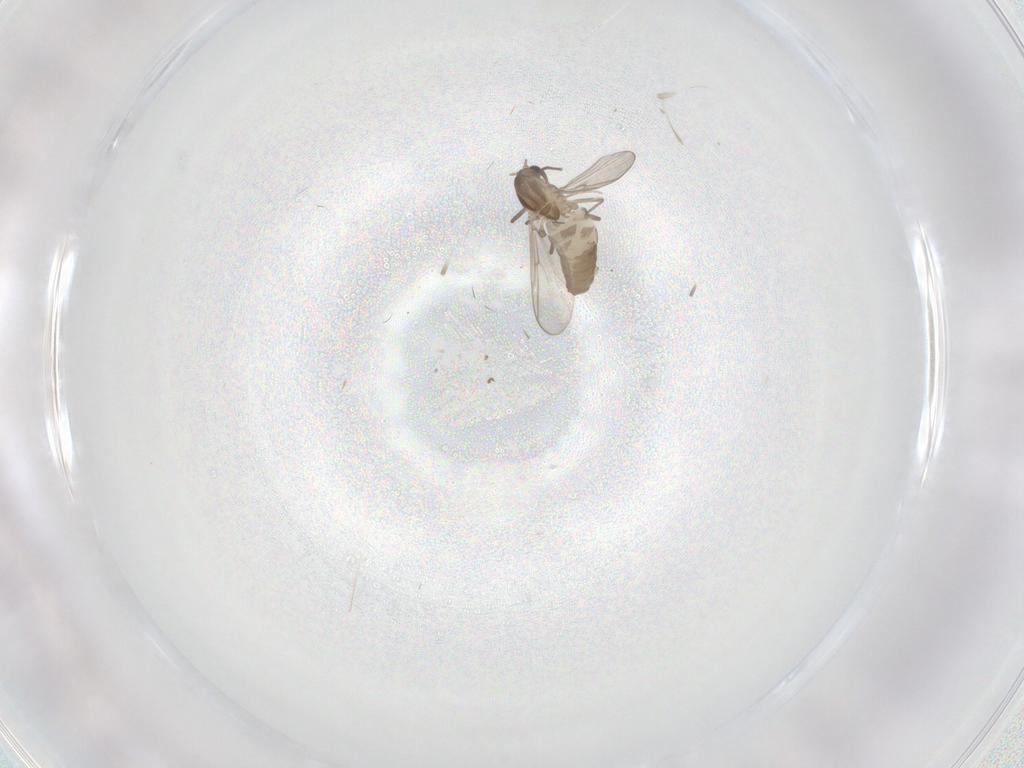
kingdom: Animalia
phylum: Arthropoda
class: Insecta
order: Diptera
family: Chironomidae
